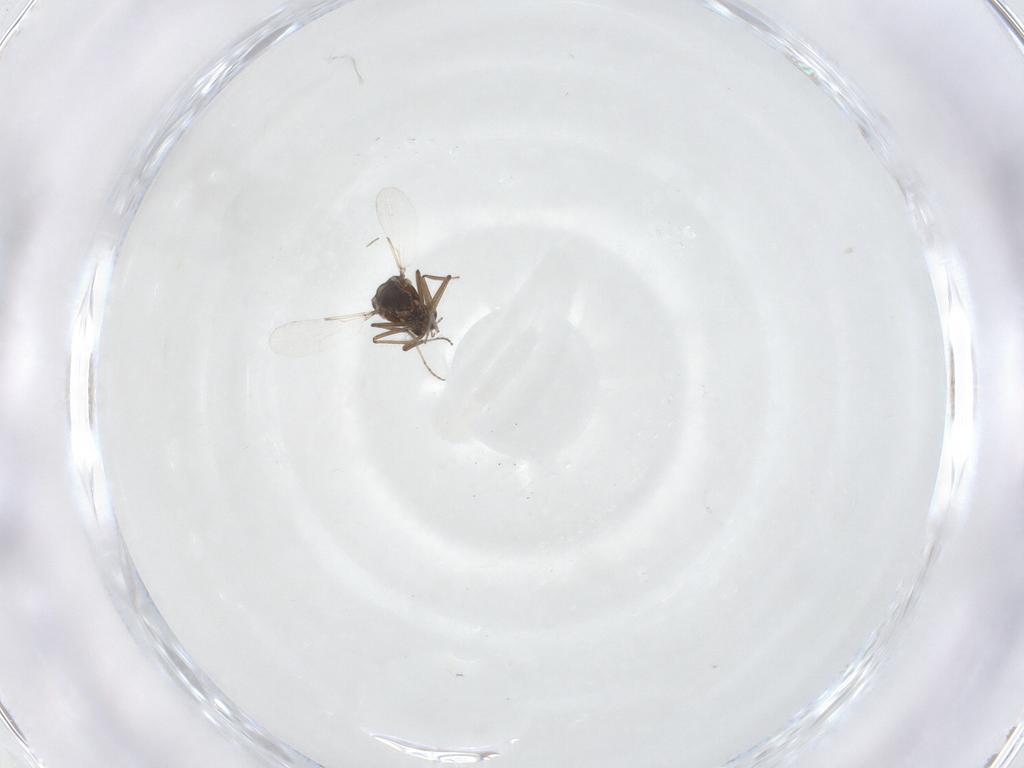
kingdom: Animalia
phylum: Arthropoda
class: Insecta
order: Diptera
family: Ceratopogonidae
